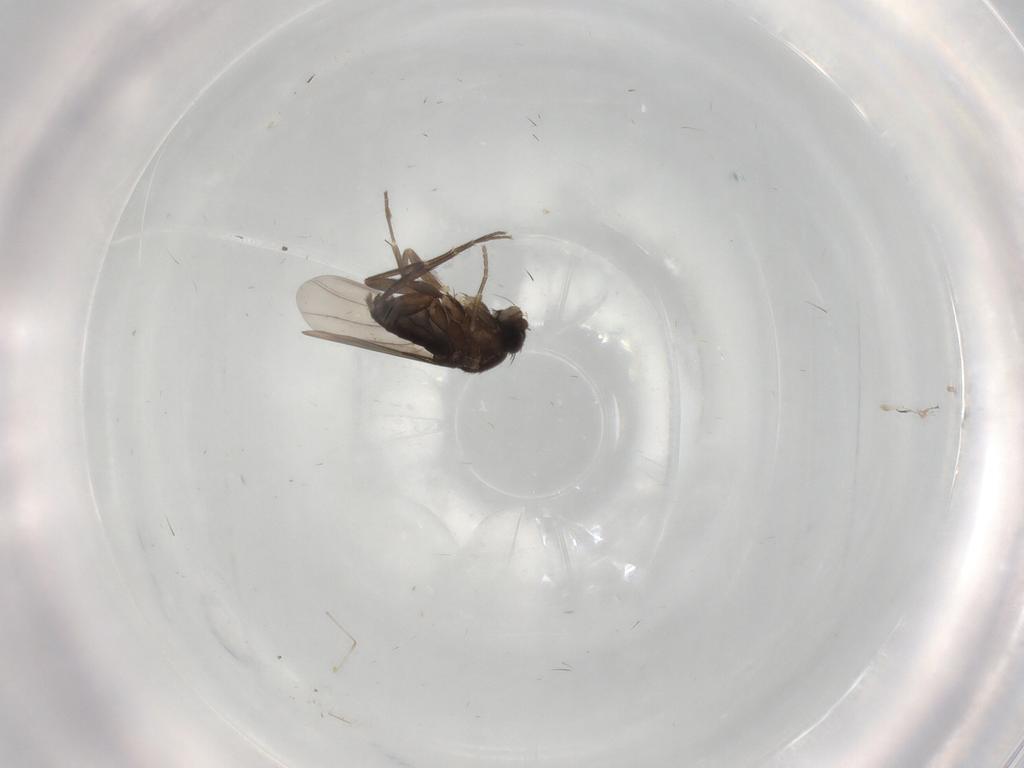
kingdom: Animalia
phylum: Arthropoda
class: Insecta
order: Diptera
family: Phoridae
